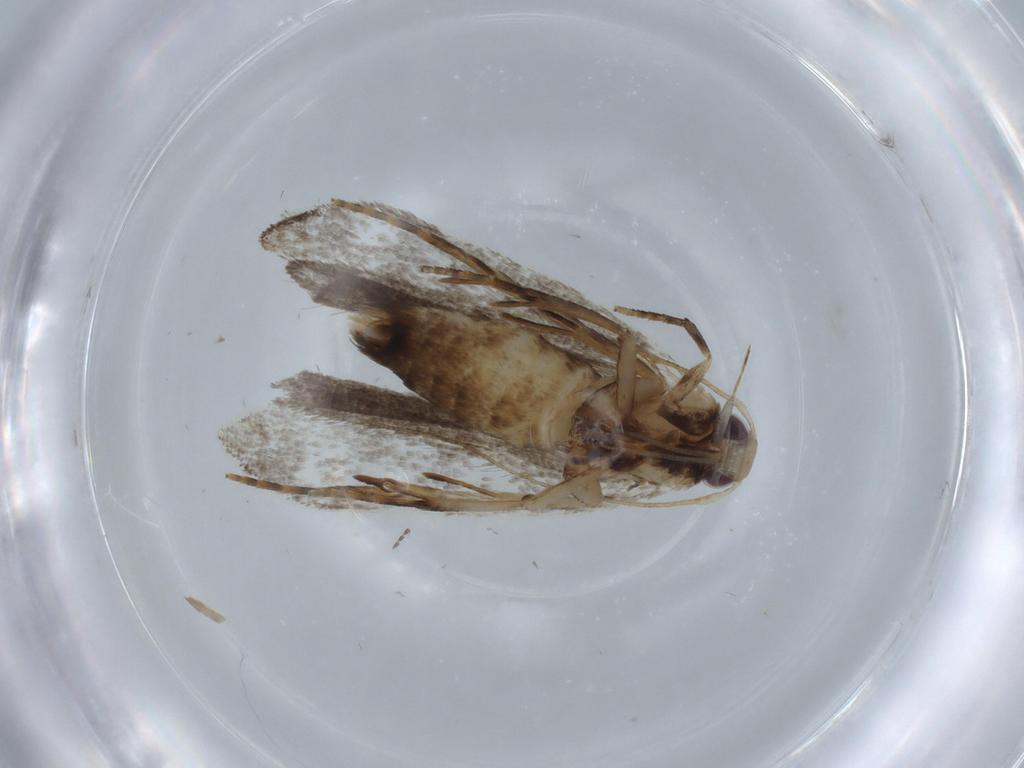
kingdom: Animalia
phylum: Arthropoda
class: Insecta
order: Lepidoptera
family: Gelechiidae
